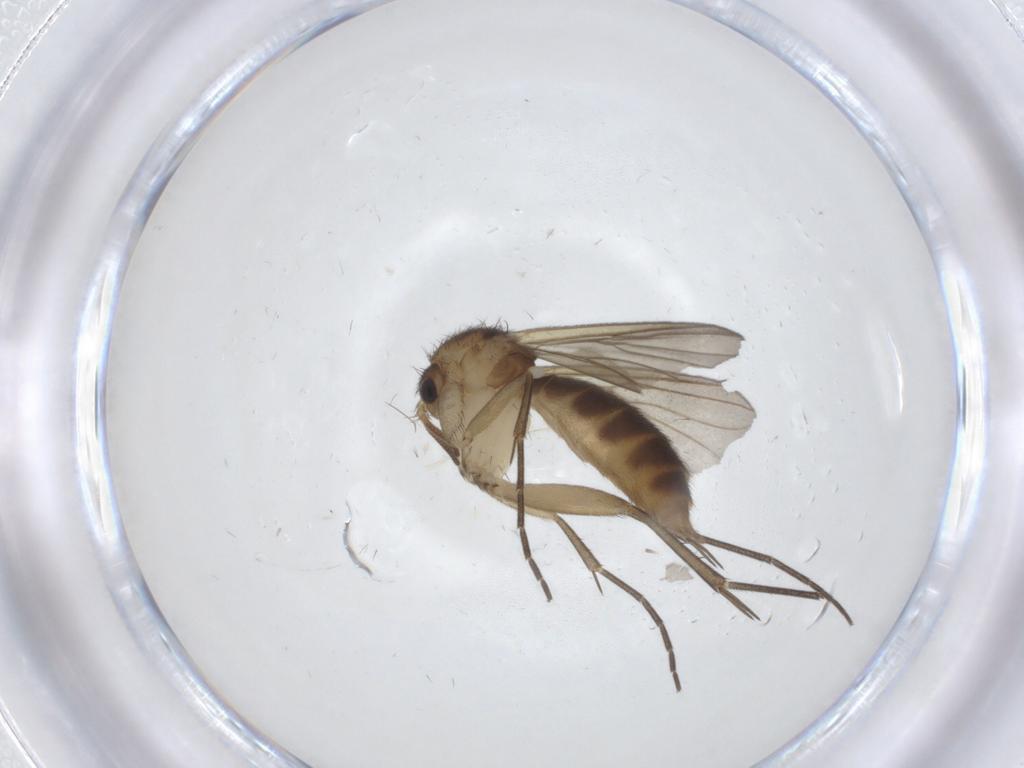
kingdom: Animalia
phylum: Arthropoda
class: Insecta
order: Diptera
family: Mycetophilidae
